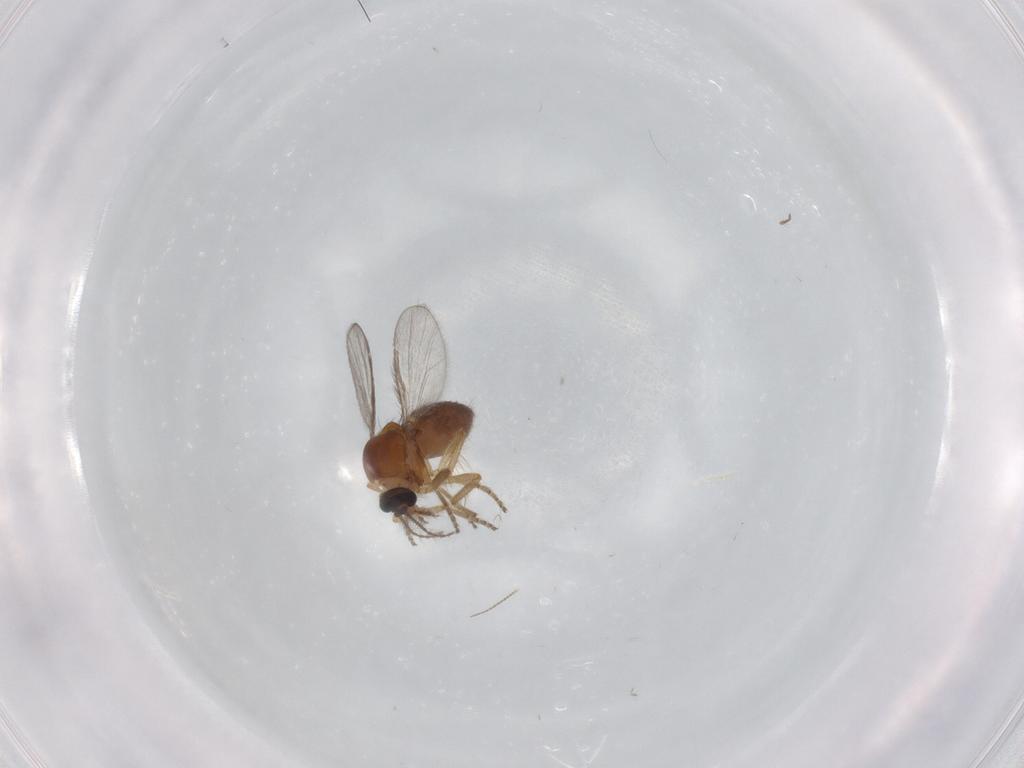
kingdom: Animalia
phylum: Arthropoda
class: Insecta
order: Diptera
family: Ceratopogonidae
